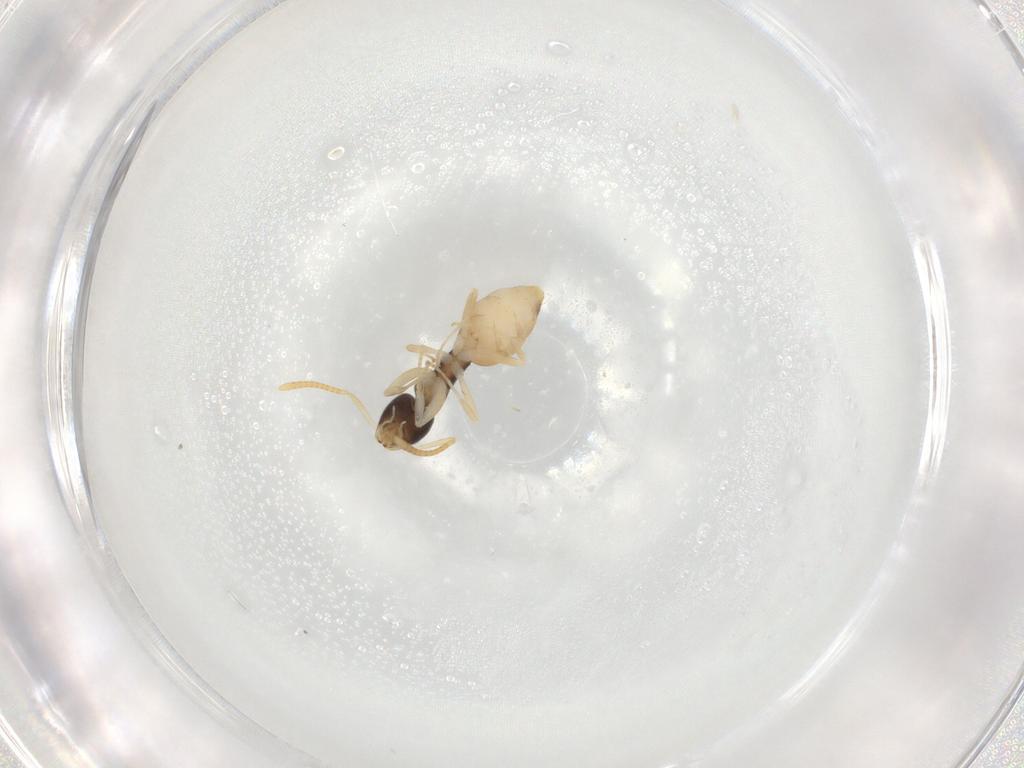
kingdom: Animalia
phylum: Arthropoda
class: Insecta
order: Hymenoptera
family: Formicidae
